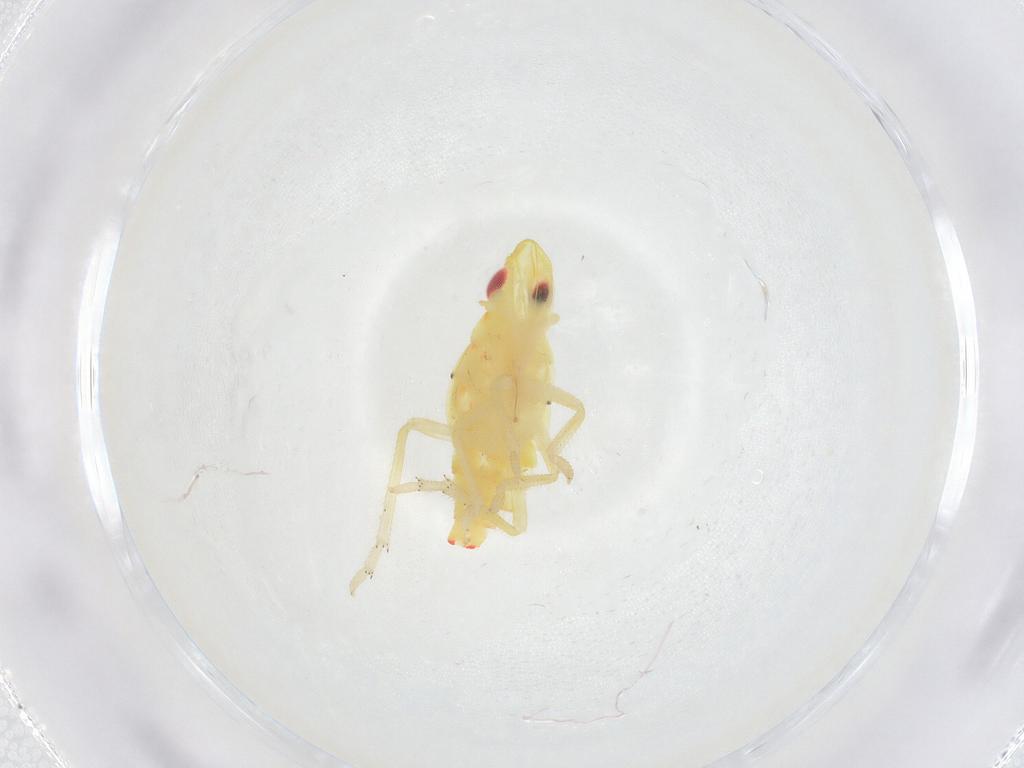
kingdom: Animalia
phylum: Arthropoda
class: Insecta
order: Hemiptera
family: Tropiduchidae
